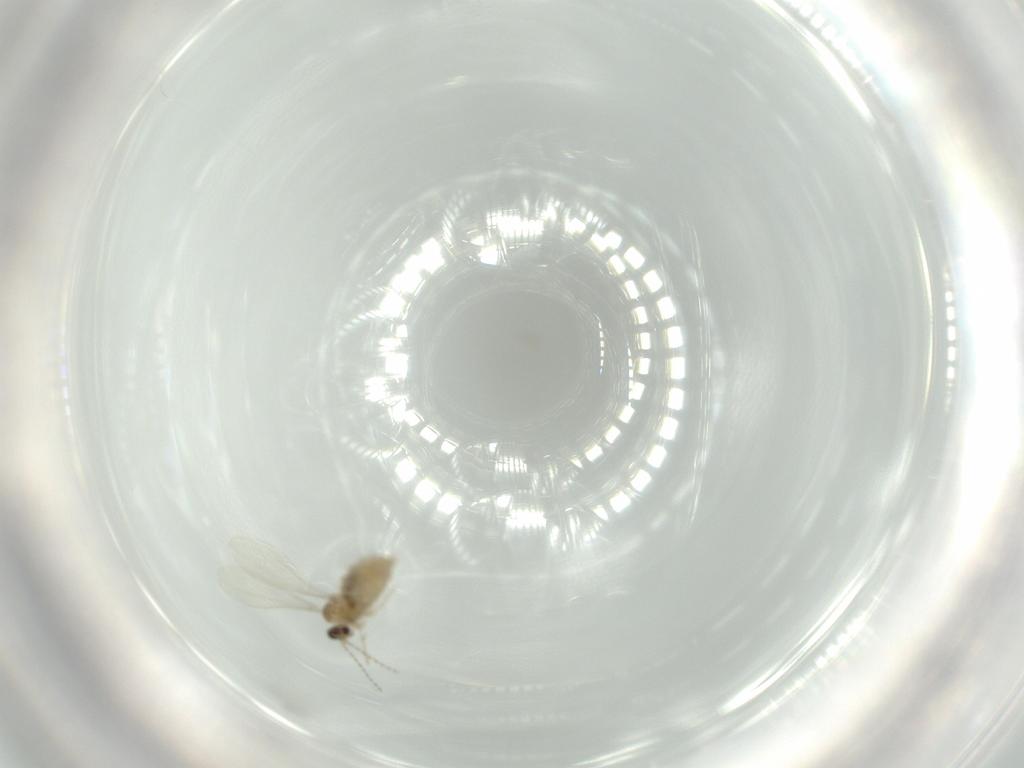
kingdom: Animalia
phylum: Arthropoda
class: Insecta
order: Diptera
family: Cecidomyiidae
